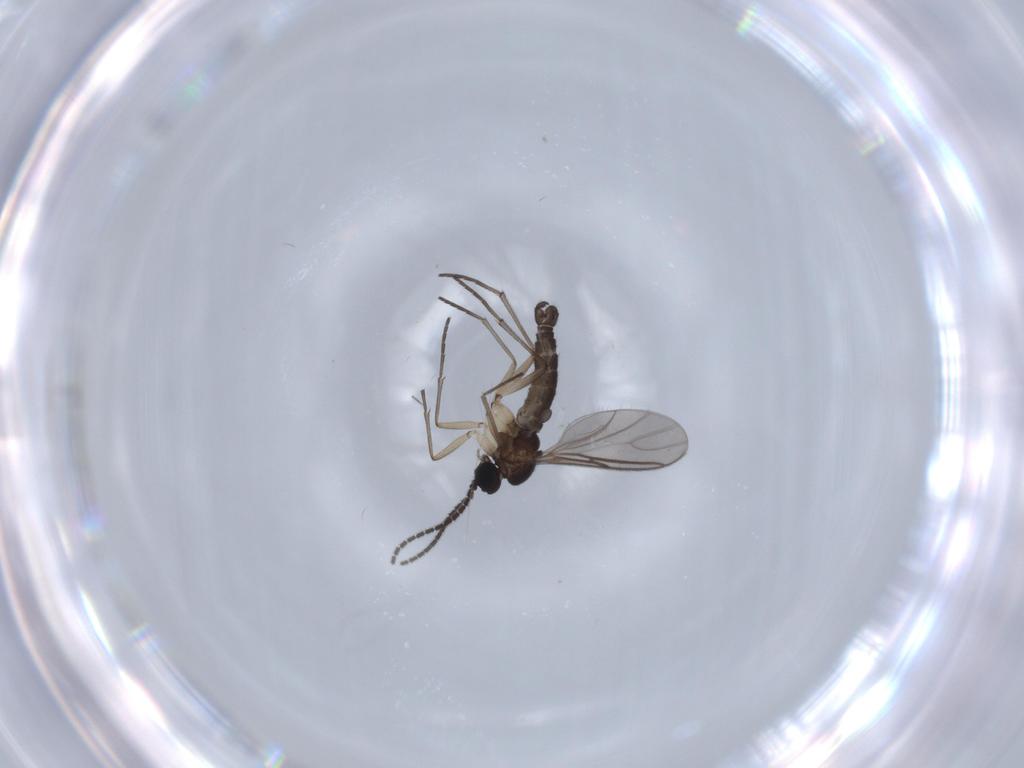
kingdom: Animalia
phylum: Arthropoda
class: Insecta
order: Diptera
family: Sciaridae
